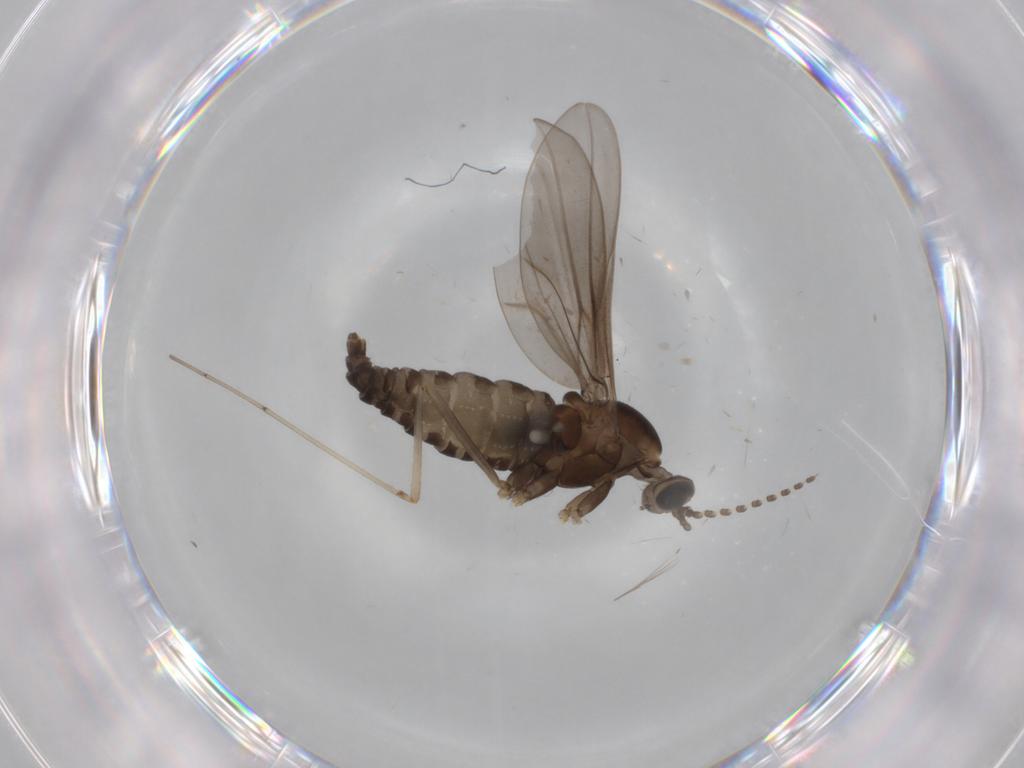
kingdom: Animalia
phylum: Arthropoda
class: Insecta
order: Diptera
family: Cecidomyiidae
